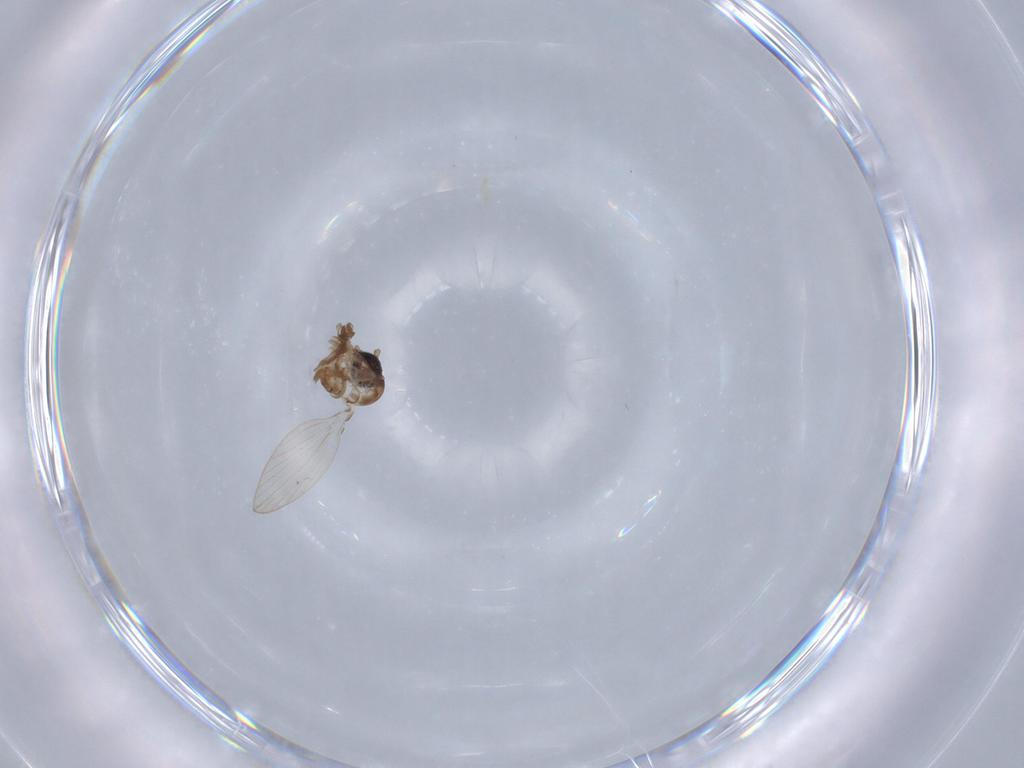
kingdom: Animalia
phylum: Arthropoda
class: Insecta
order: Diptera
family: Psychodidae
